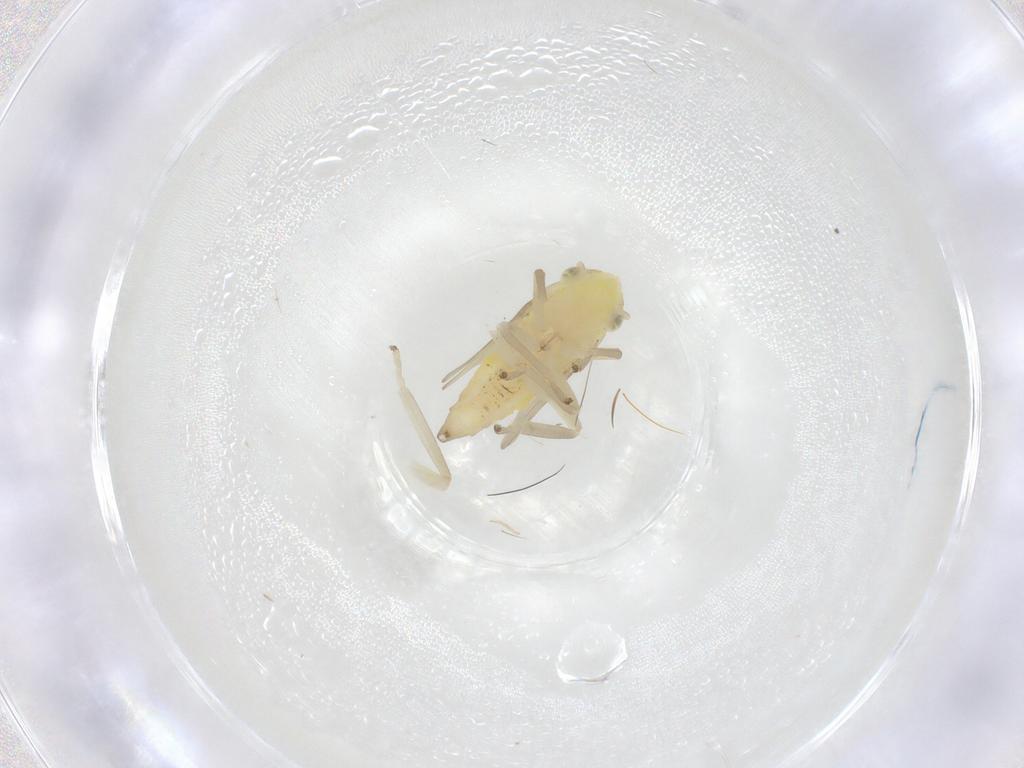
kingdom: Animalia
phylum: Arthropoda
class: Insecta
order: Hemiptera
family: Cicadellidae
